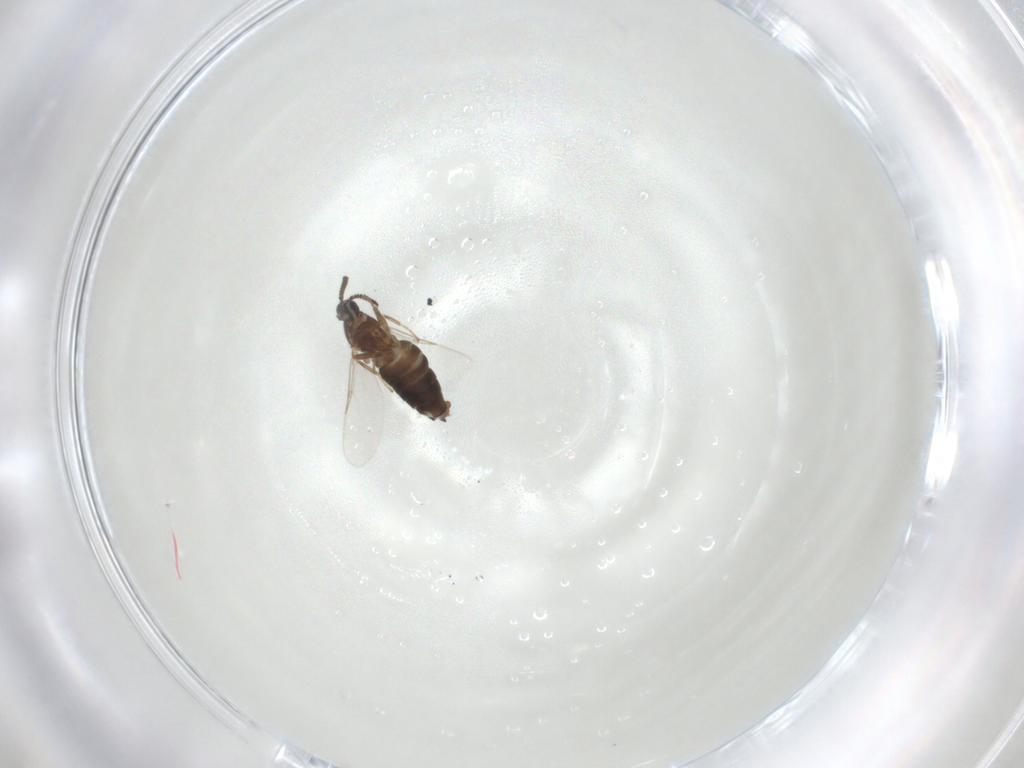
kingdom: Animalia
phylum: Arthropoda
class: Insecta
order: Diptera
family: Scatopsidae
